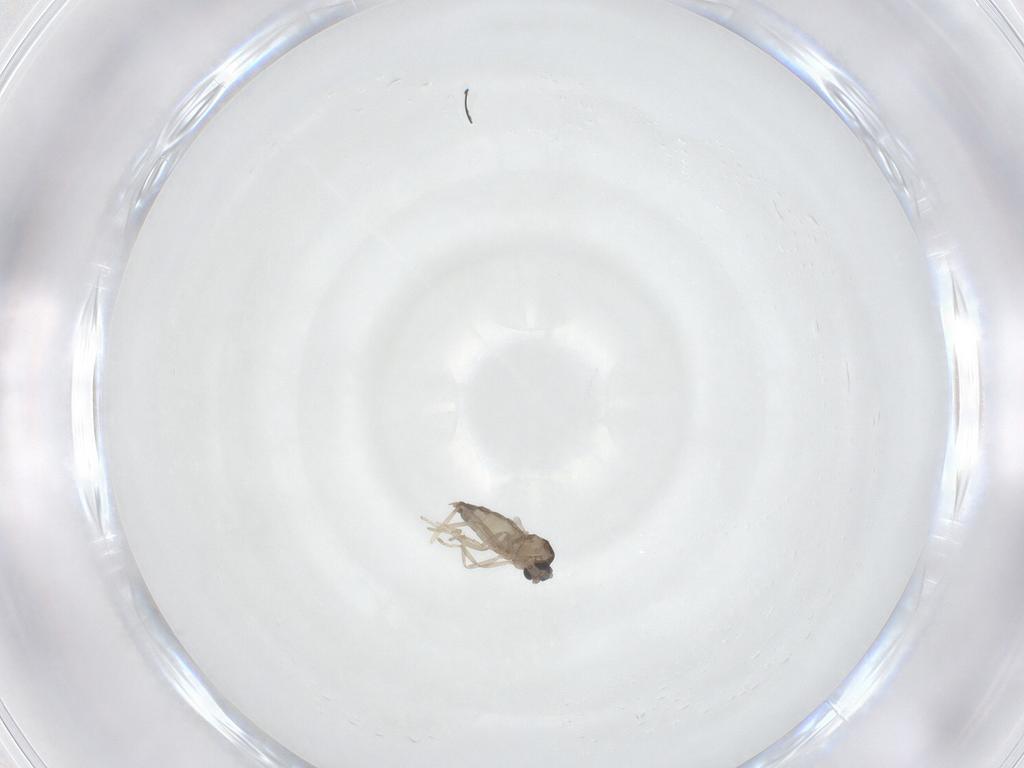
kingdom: Animalia
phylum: Arthropoda
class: Insecta
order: Diptera
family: Cecidomyiidae
